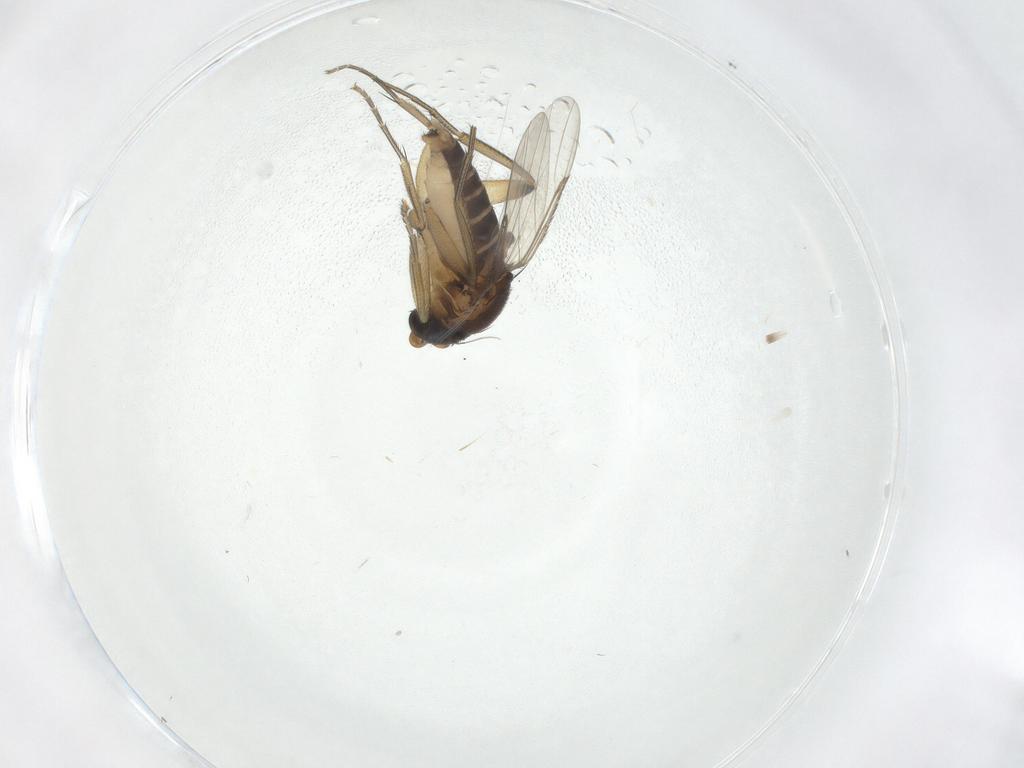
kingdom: Animalia
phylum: Arthropoda
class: Insecta
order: Diptera
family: Phoridae
